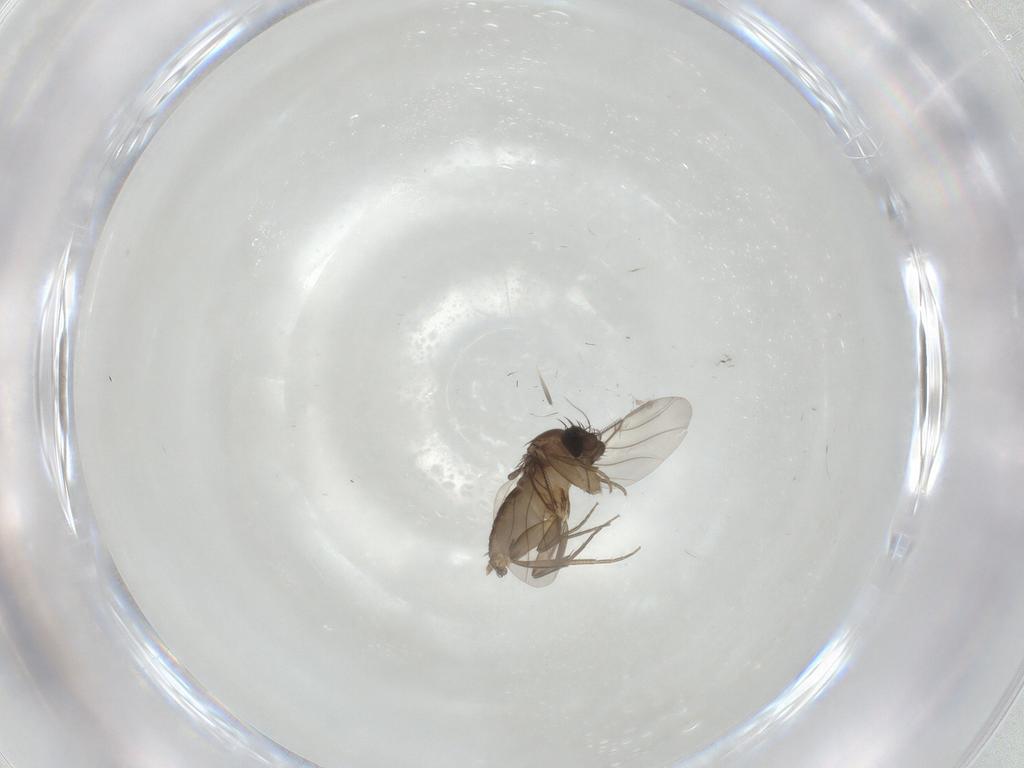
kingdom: Animalia
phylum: Arthropoda
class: Insecta
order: Diptera
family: Phoridae
